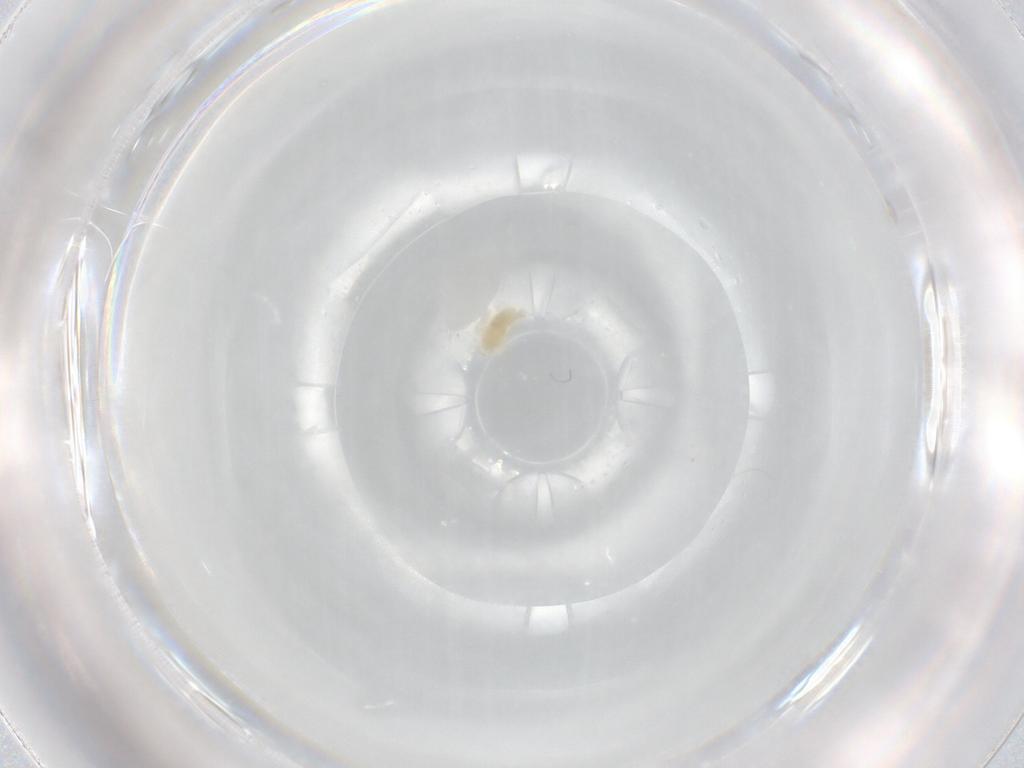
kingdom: Animalia
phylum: Arthropoda
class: Arachnida
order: Trombidiformes
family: Eupodidae
